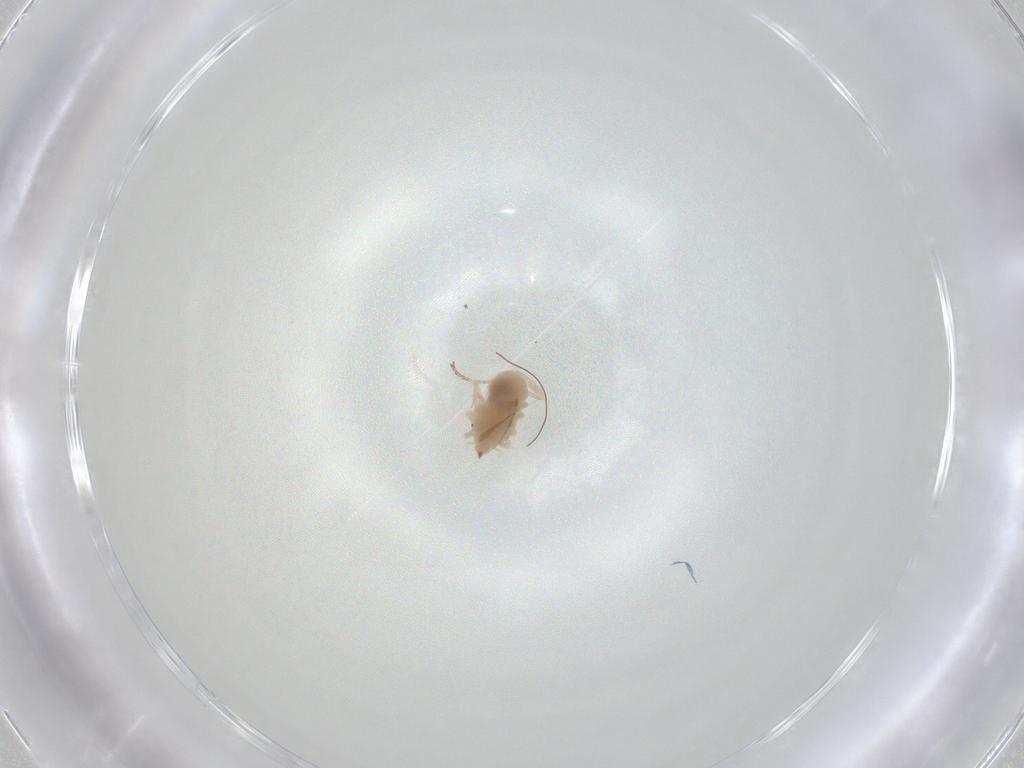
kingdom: Animalia
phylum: Arthropoda
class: Arachnida
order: Trombidiformes
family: Bdellidae
